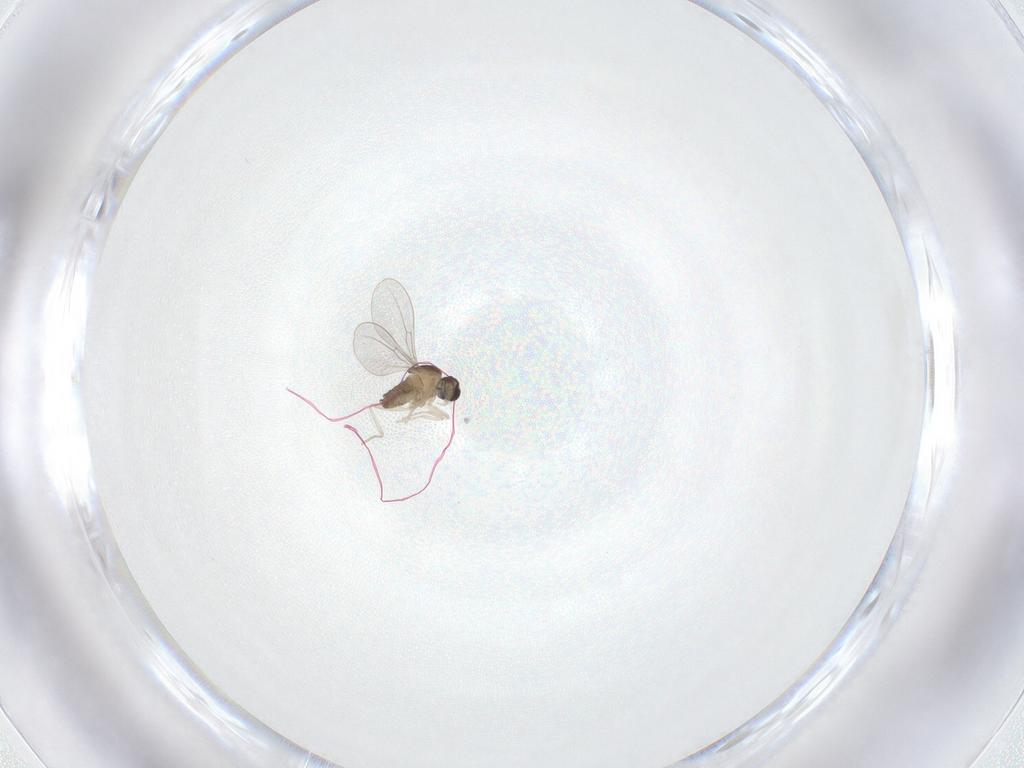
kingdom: Animalia
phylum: Arthropoda
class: Insecta
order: Diptera
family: Cecidomyiidae
